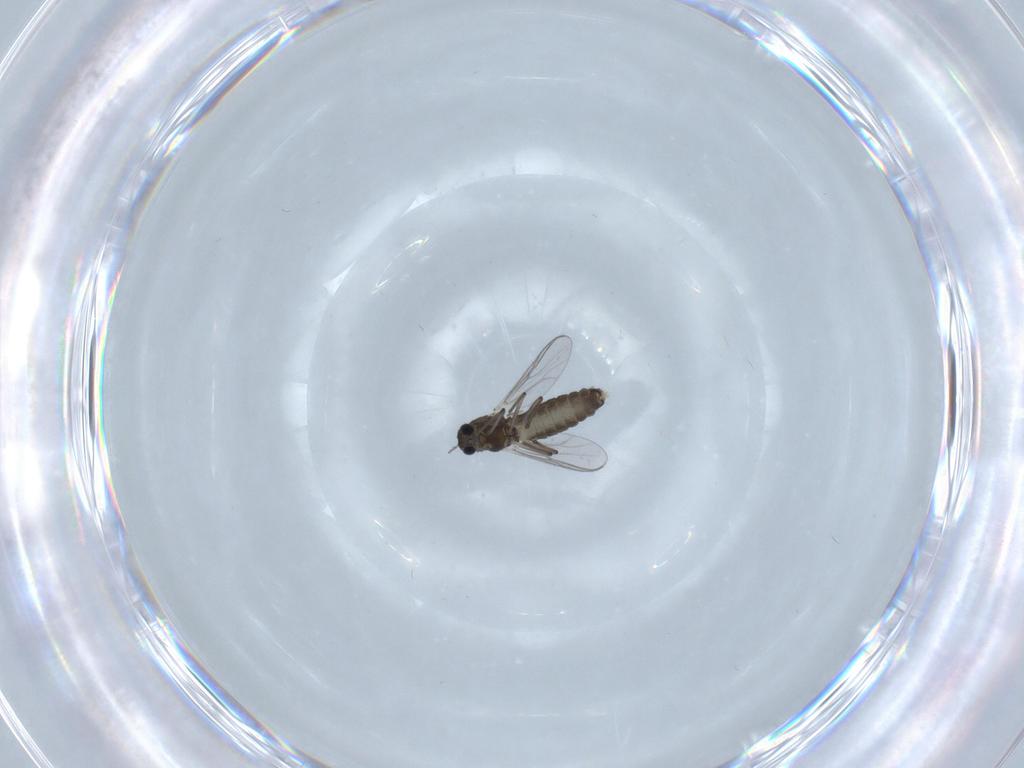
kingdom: Animalia
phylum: Arthropoda
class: Insecta
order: Diptera
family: Chironomidae
